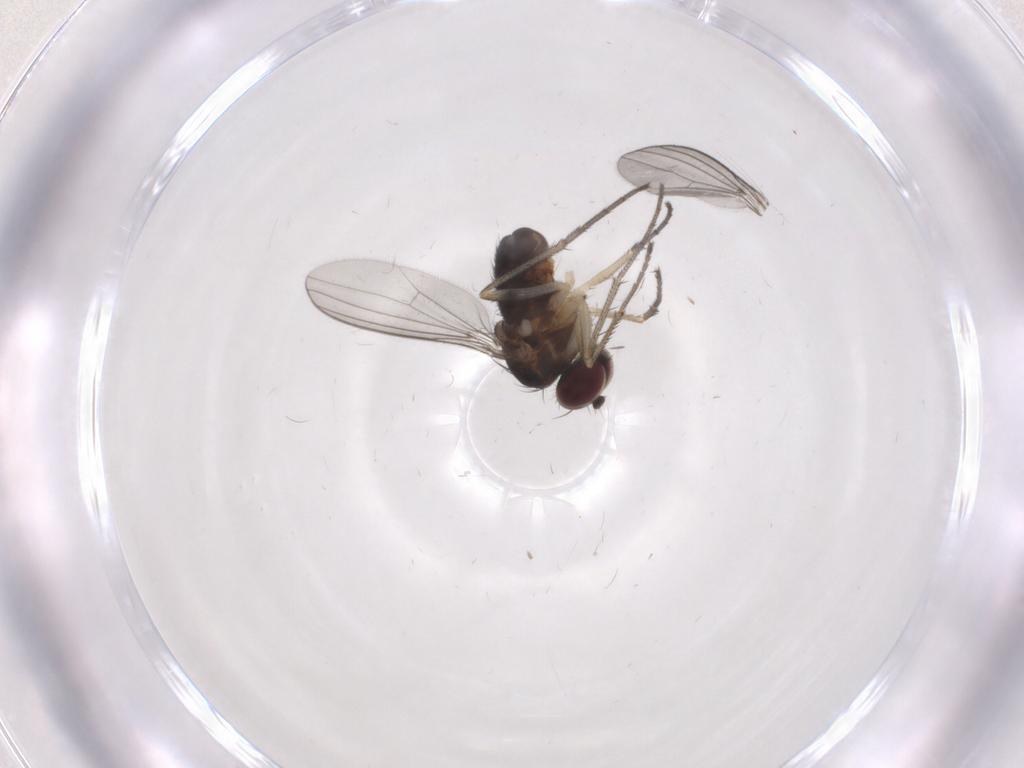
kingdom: Animalia
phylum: Arthropoda
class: Insecta
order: Diptera
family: Dolichopodidae
